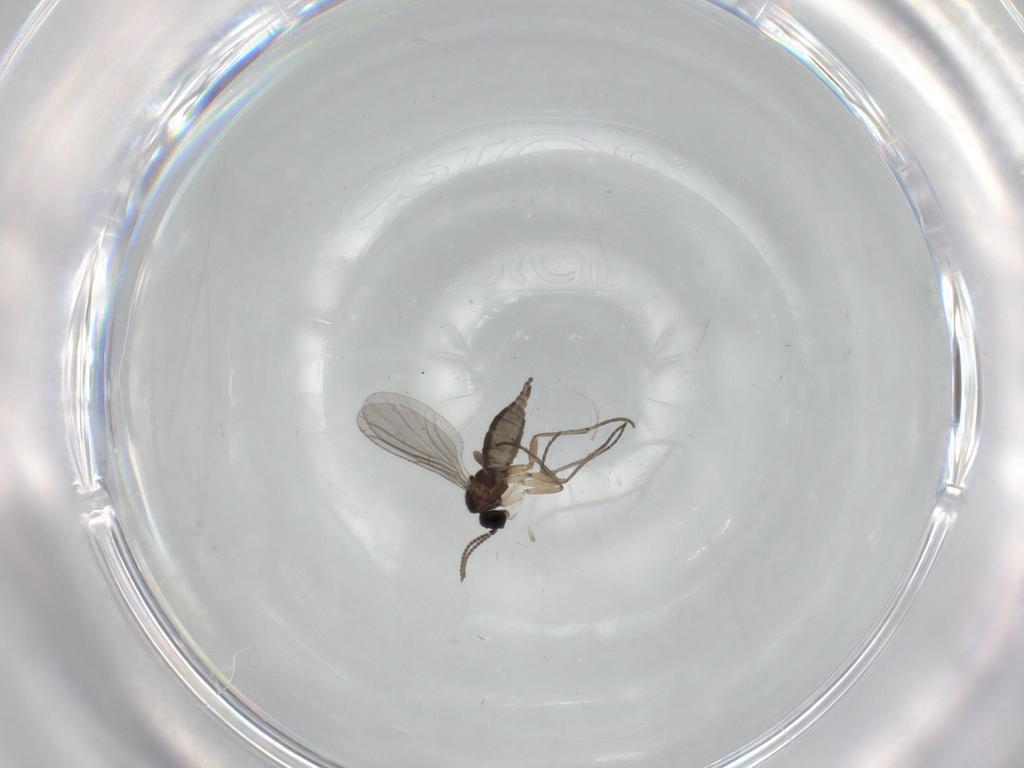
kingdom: Animalia
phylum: Arthropoda
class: Insecta
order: Diptera
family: Sciaridae
